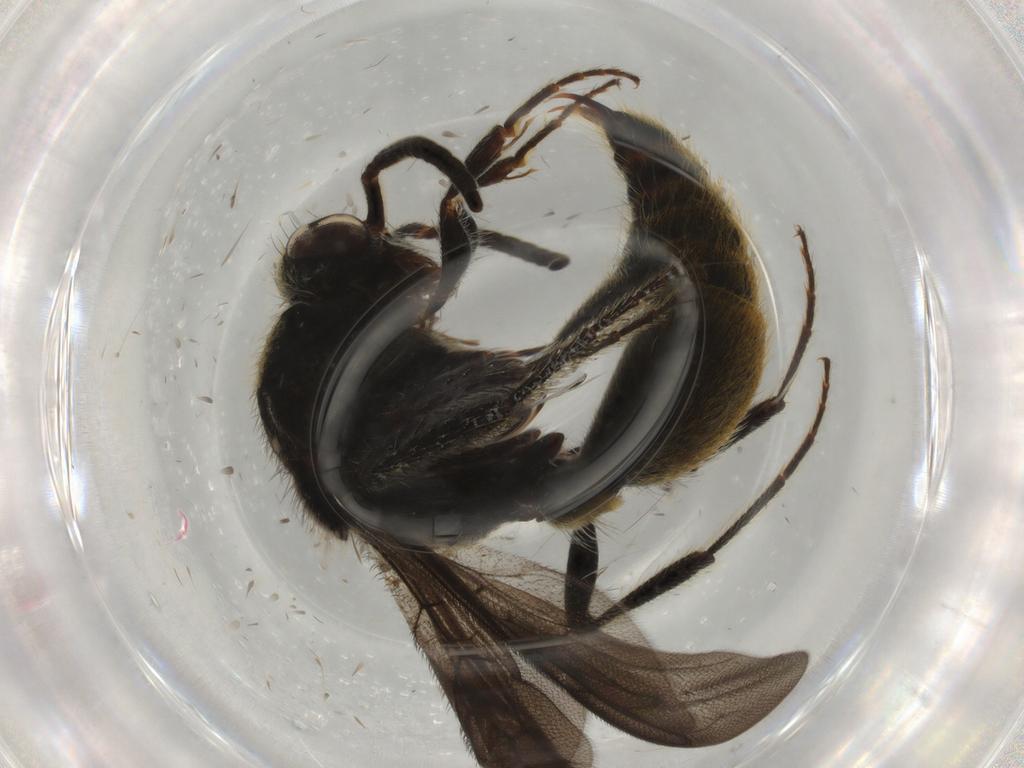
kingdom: Animalia
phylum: Arthropoda
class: Insecta
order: Hymenoptera
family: Mutillidae
